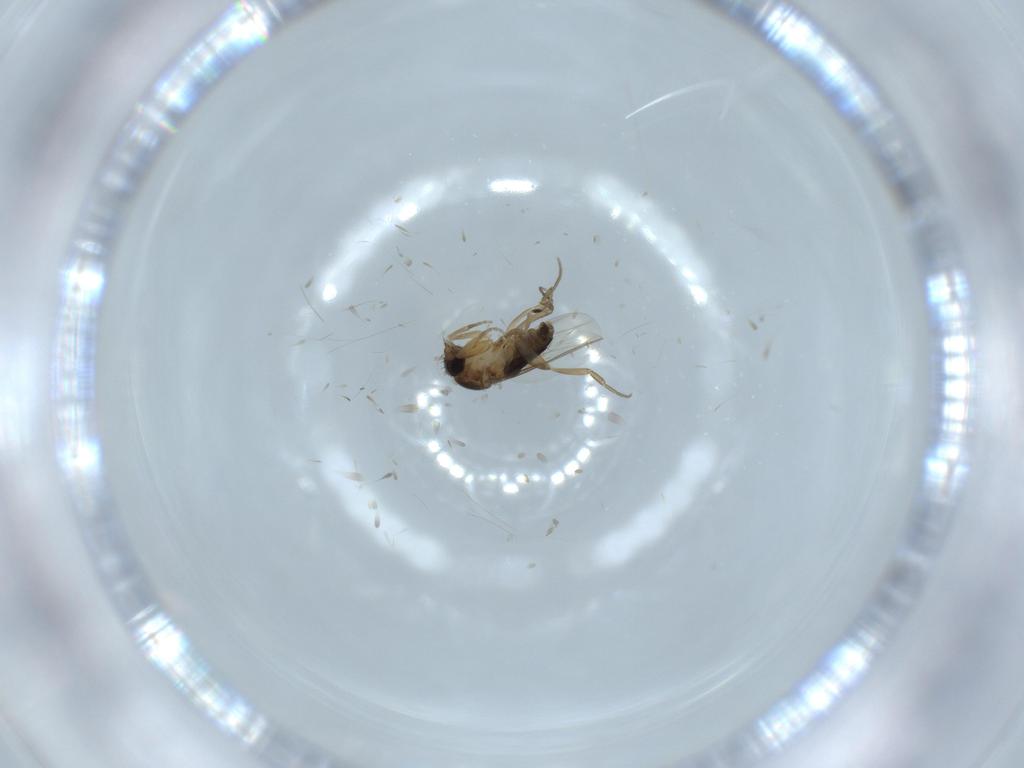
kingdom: Animalia
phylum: Arthropoda
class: Insecta
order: Diptera
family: Phoridae
